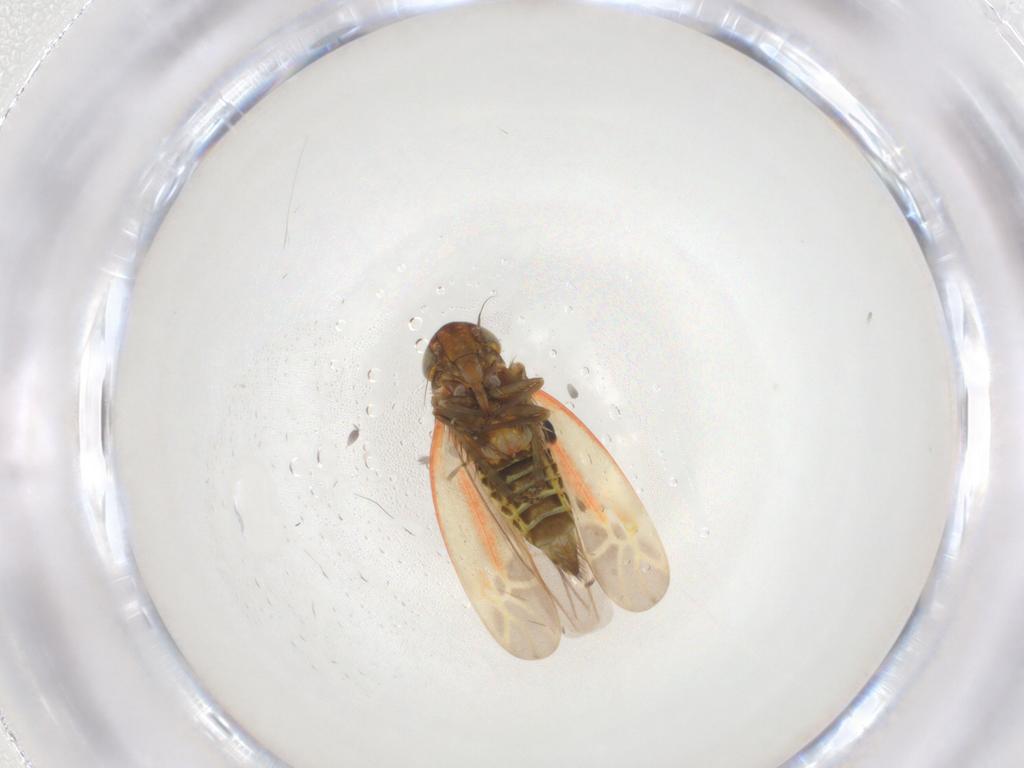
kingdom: Animalia
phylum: Arthropoda
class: Insecta
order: Hemiptera
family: Cicadellidae
